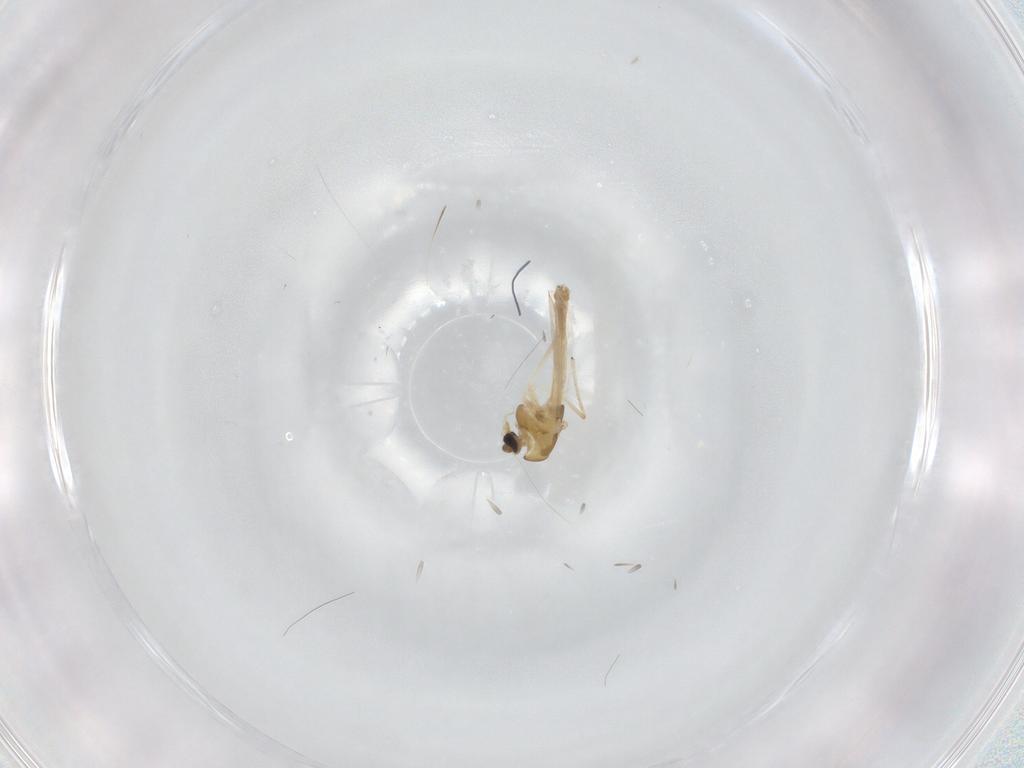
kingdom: Animalia
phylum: Arthropoda
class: Insecta
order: Diptera
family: Chironomidae
